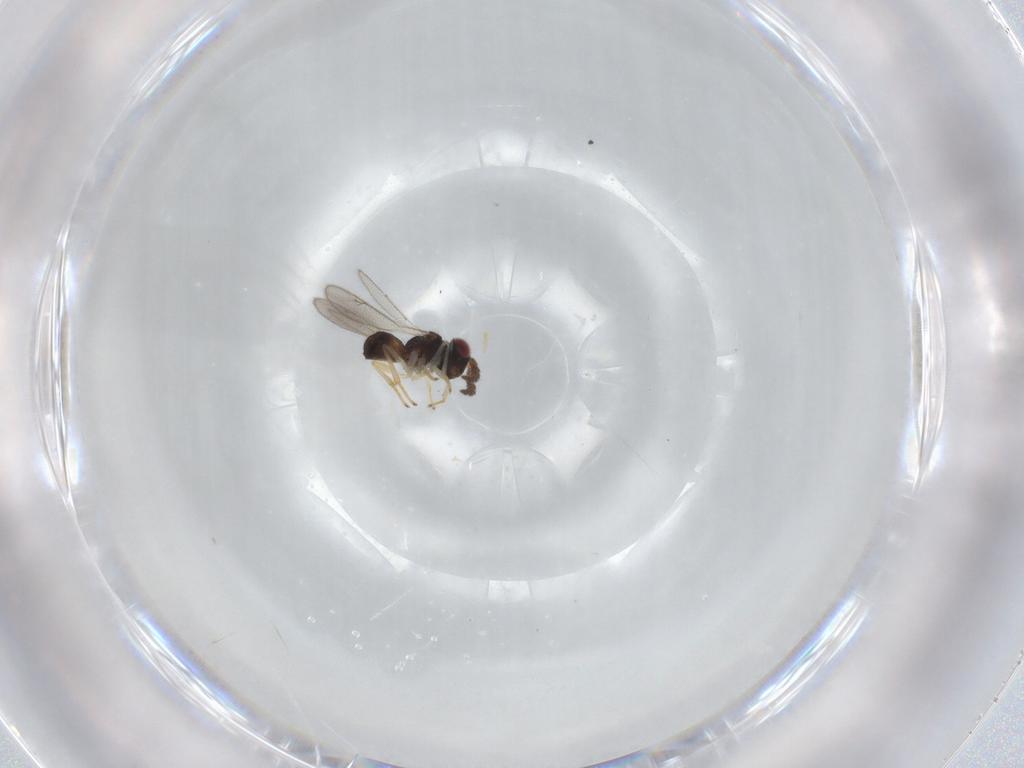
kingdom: Animalia
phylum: Arthropoda
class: Insecta
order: Hymenoptera
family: Eulophidae
